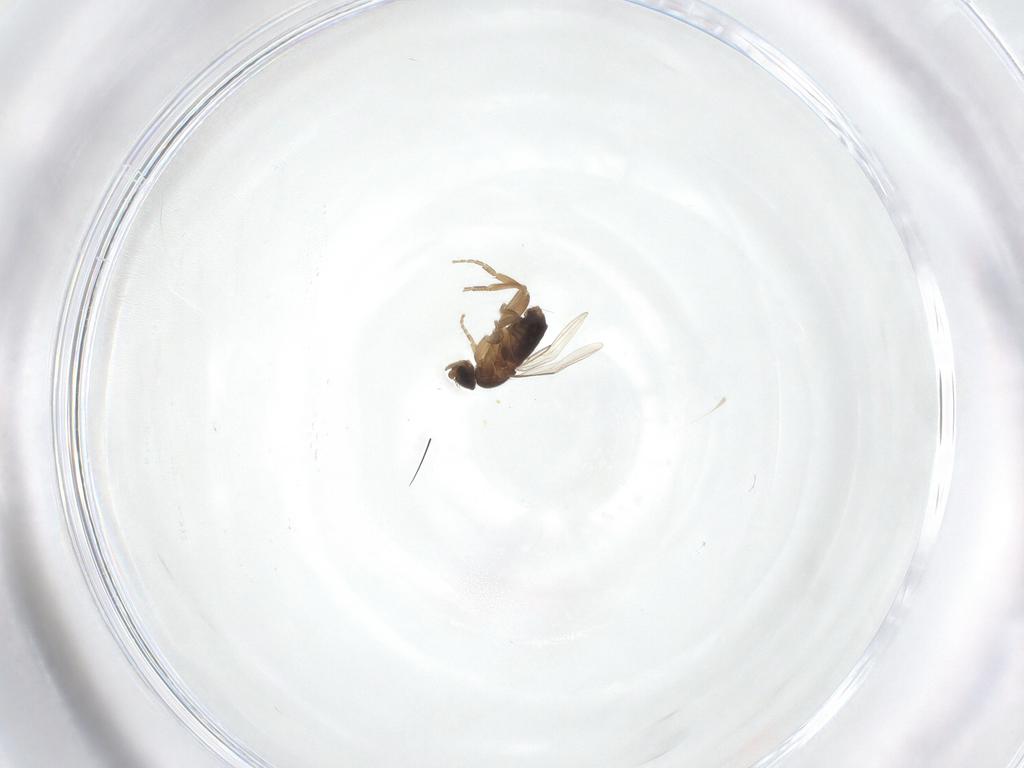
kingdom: Animalia
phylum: Arthropoda
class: Insecta
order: Diptera
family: Phoridae
